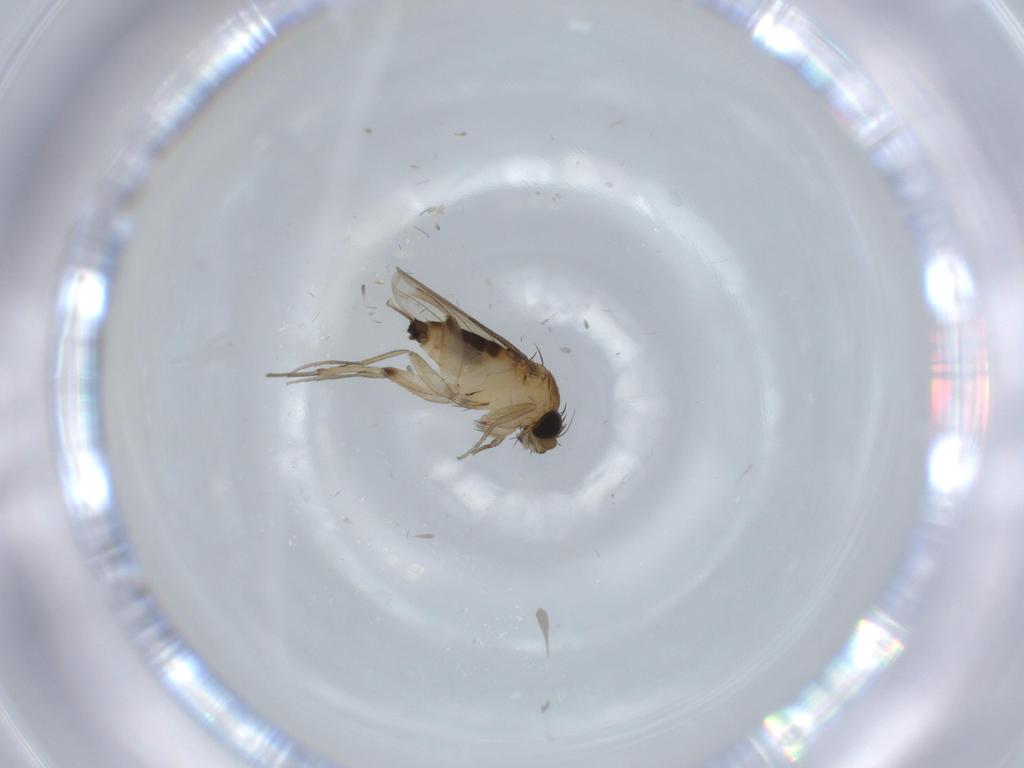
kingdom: Animalia
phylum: Arthropoda
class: Insecta
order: Diptera
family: Phoridae
